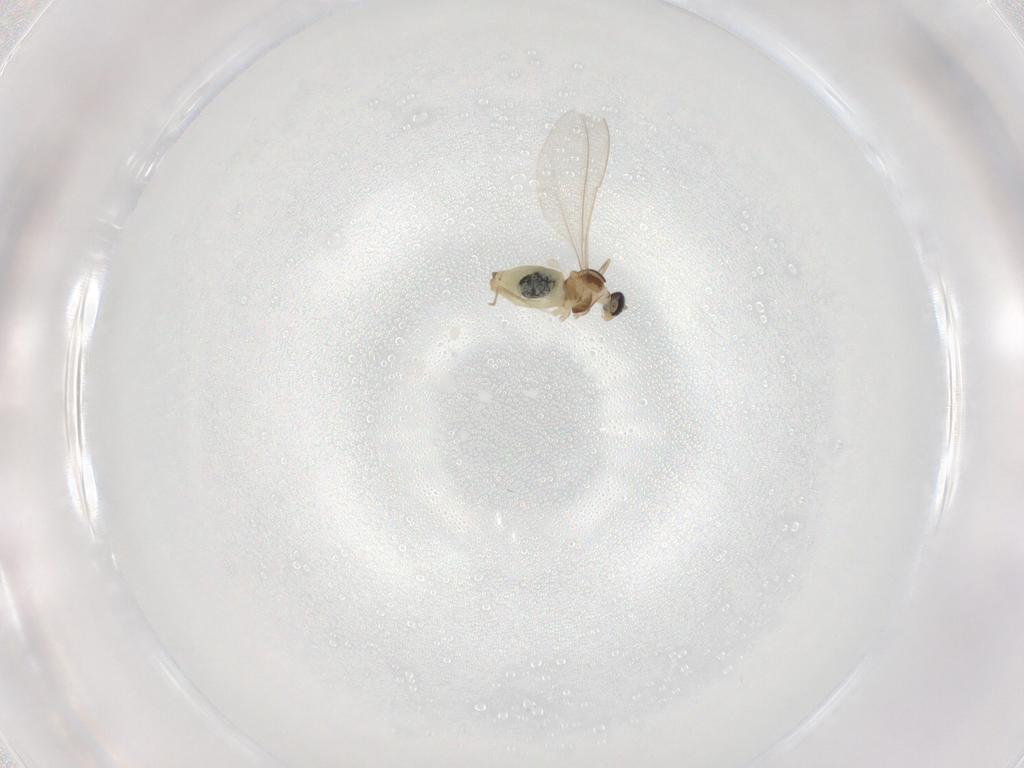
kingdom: Animalia
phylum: Arthropoda
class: Insecta
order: Diptera
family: Cecidomyiidae
